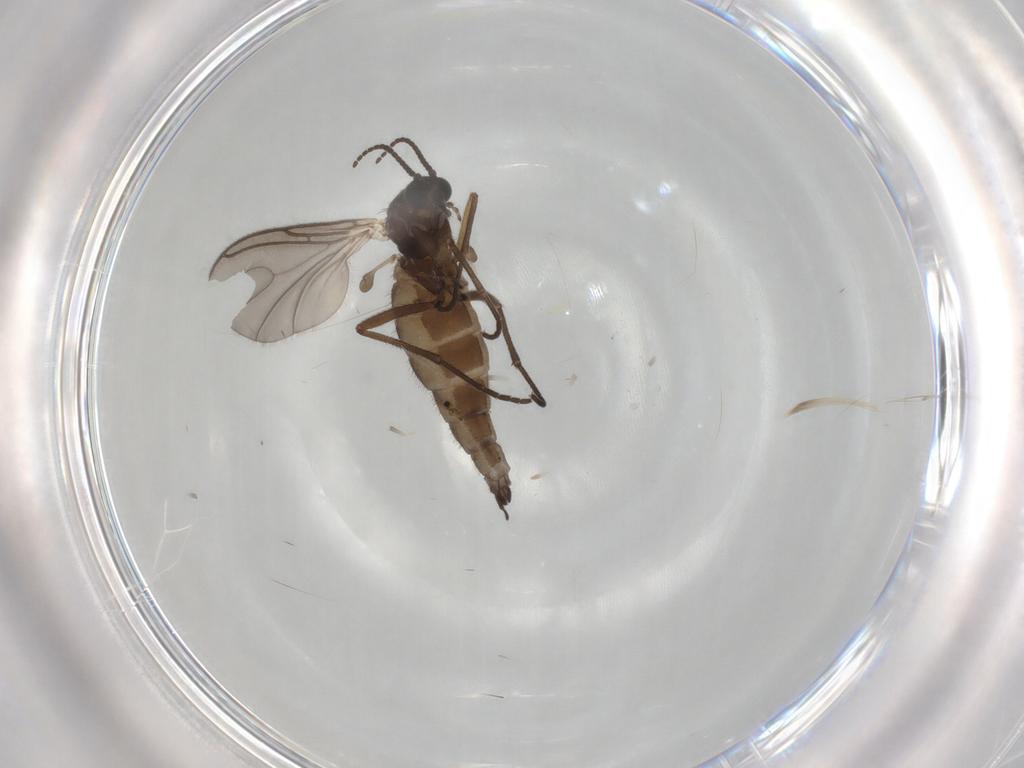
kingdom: Animalia
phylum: Arthropoda
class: Insecta
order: Diptera
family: Sciaridae
